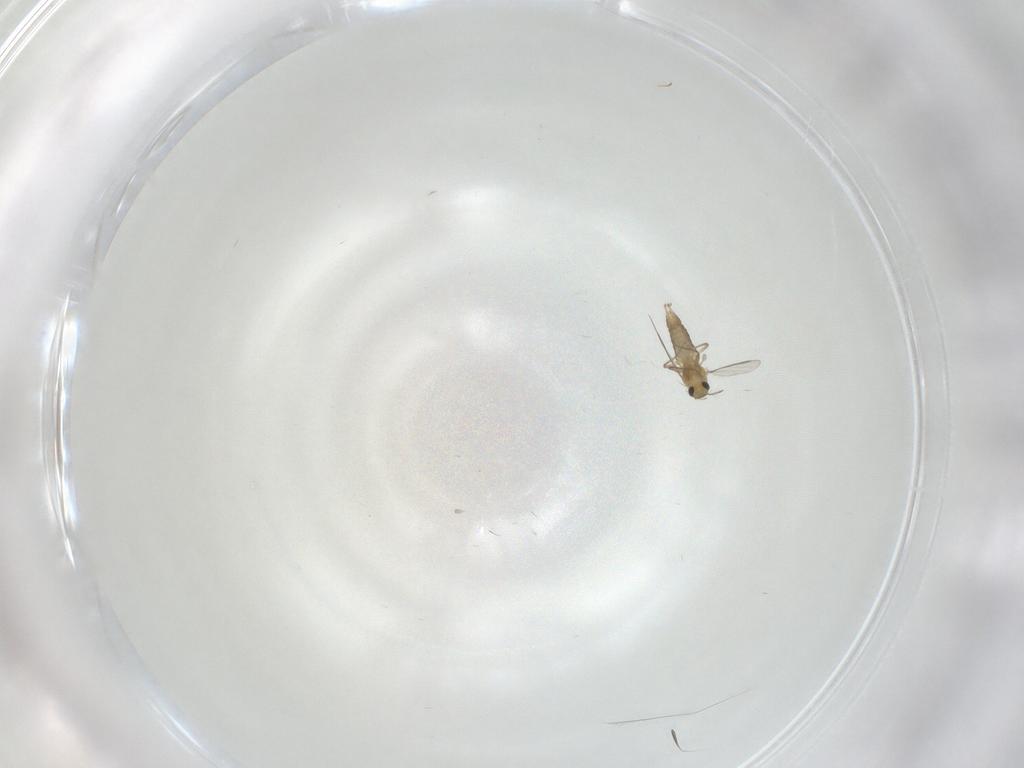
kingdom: Animalia
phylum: Arthropoda
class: Insecta
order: Diptera
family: Chironomidae
